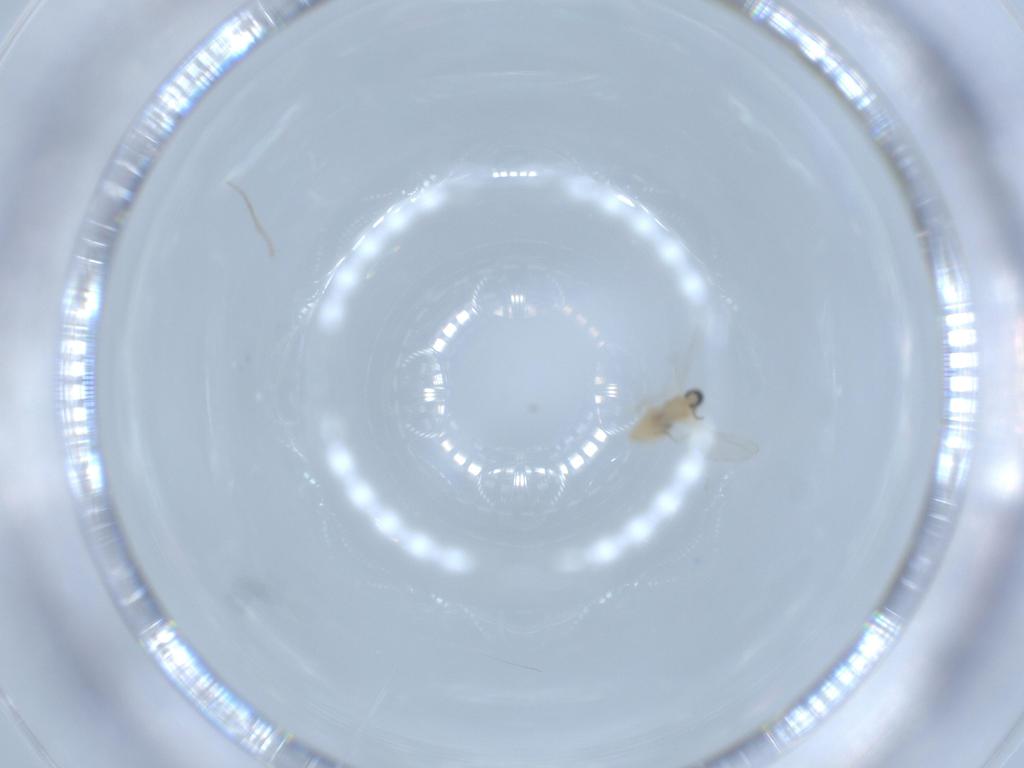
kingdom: Animalia
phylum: Arthropoda
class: Insecta
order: Diptera
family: Sciaridae
